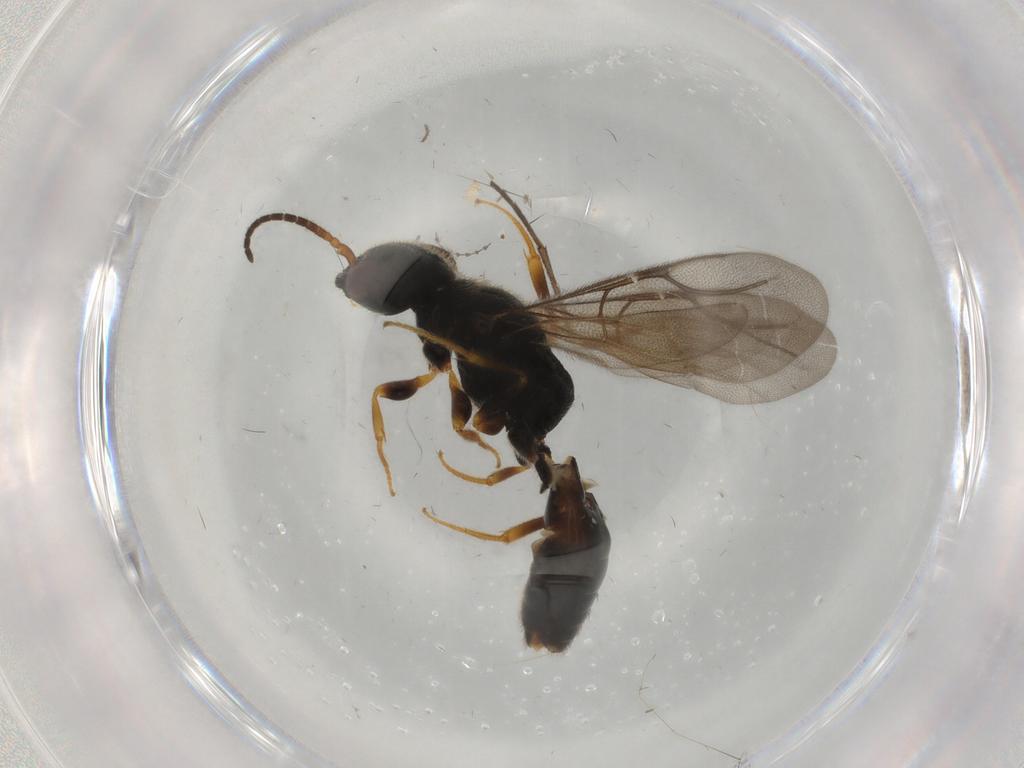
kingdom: Animalia
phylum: Arthropoda
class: Insecta
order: Hymenoptera
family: Bethylidae
